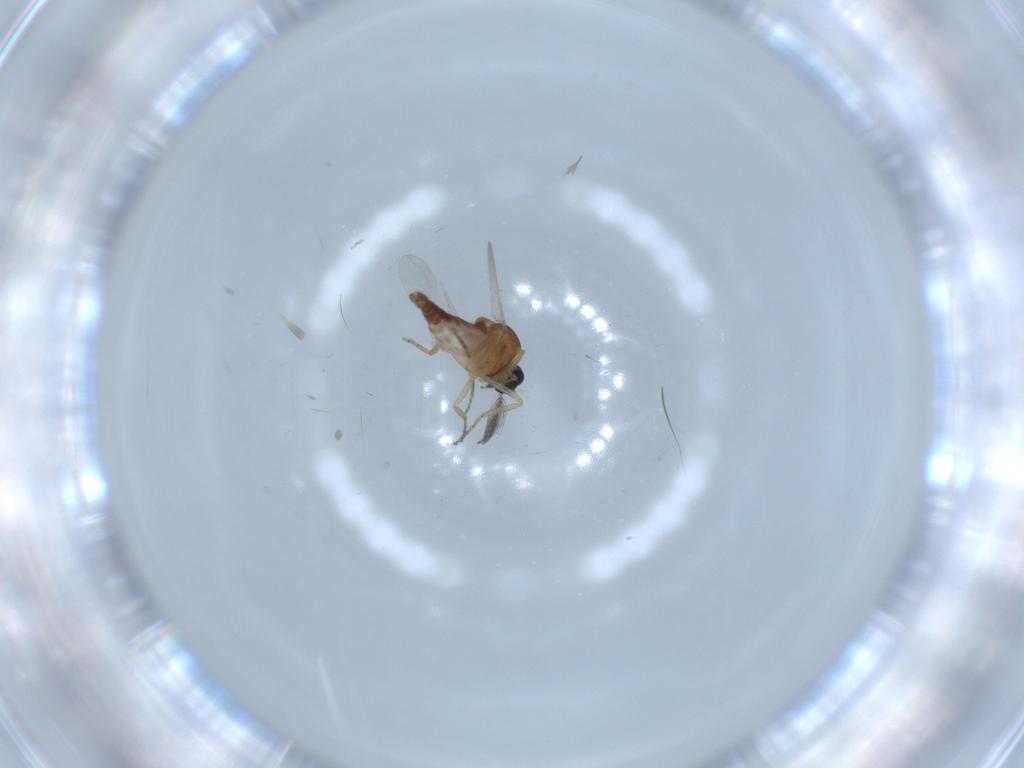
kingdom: Animalia
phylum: Arthropoda
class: Insecta
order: Diptera
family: Ceratopogonidae
